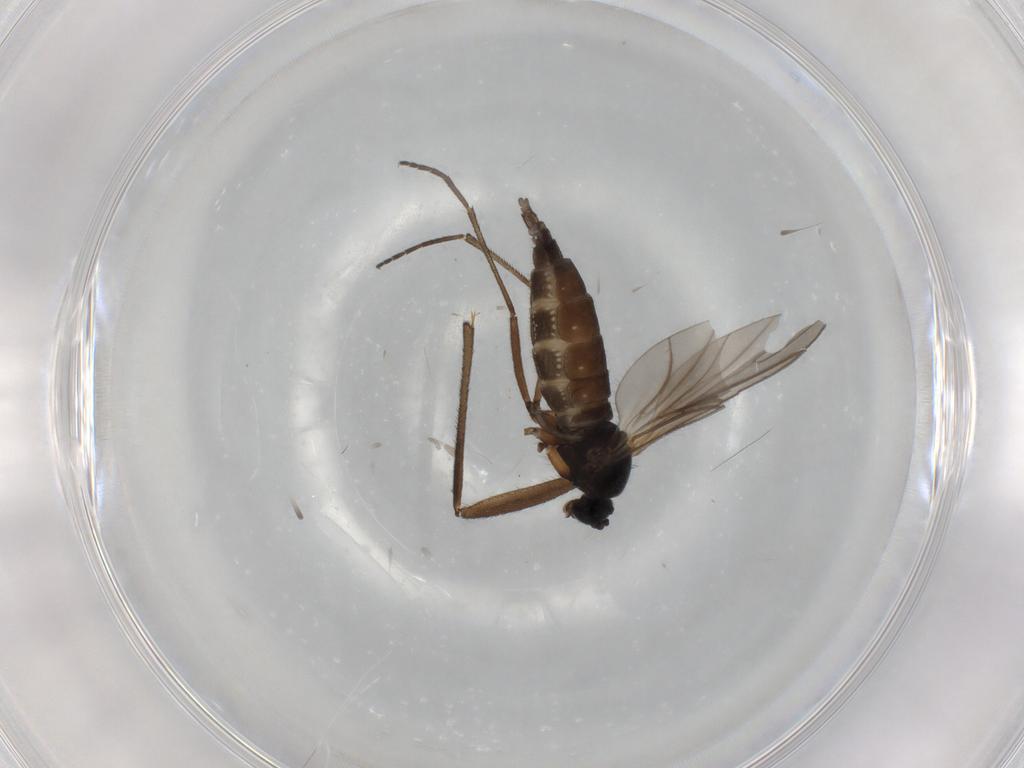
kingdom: Animalia
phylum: Arthropoda
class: Insecta
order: Diptera
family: Sciaridae
